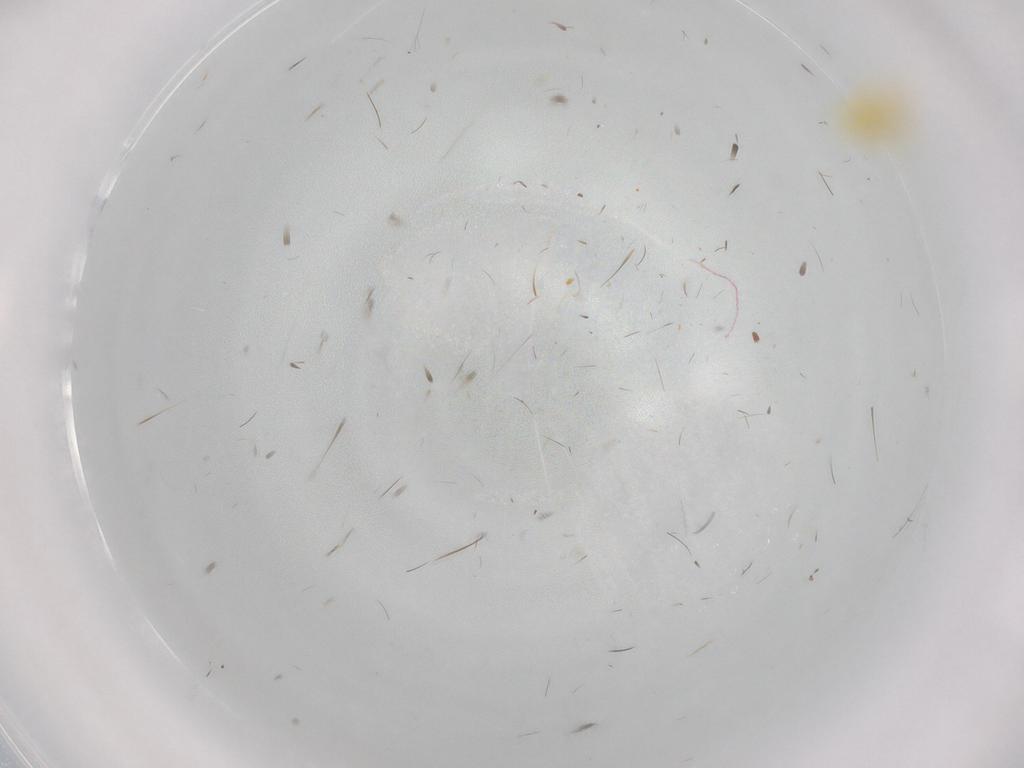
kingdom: Animalia
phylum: Arthropoda
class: Insecta
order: Hemiptera
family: Aleyrodidae
